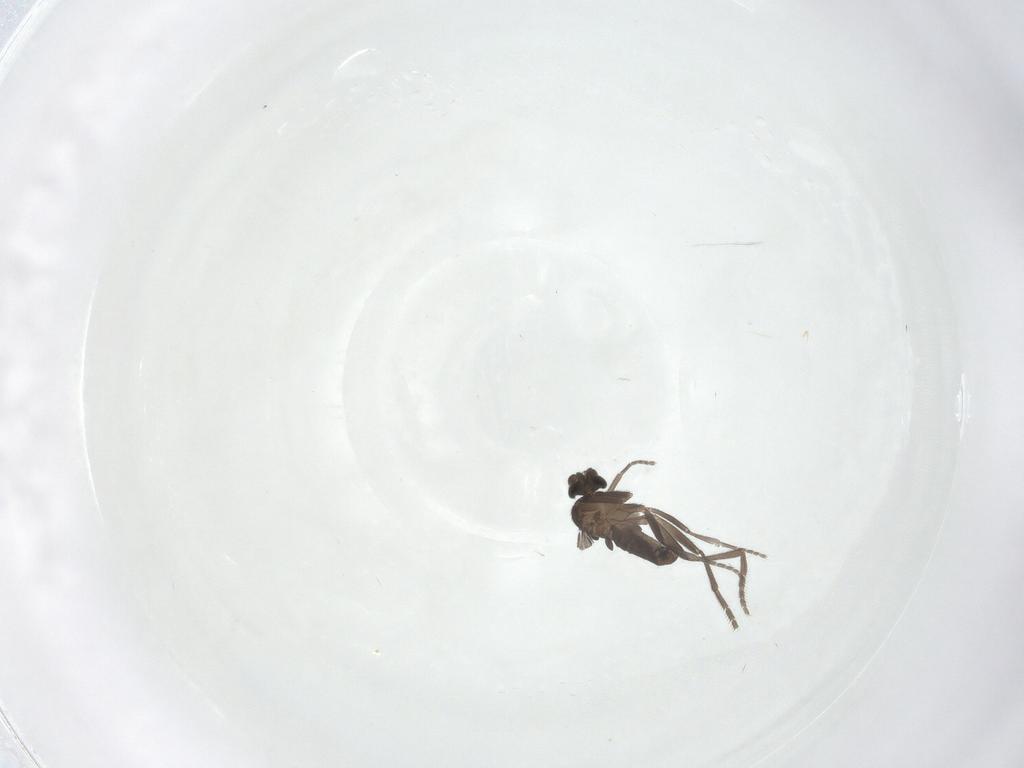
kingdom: Animalia
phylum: Arthropoda
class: Insecta
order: Diptera
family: Phoridae
